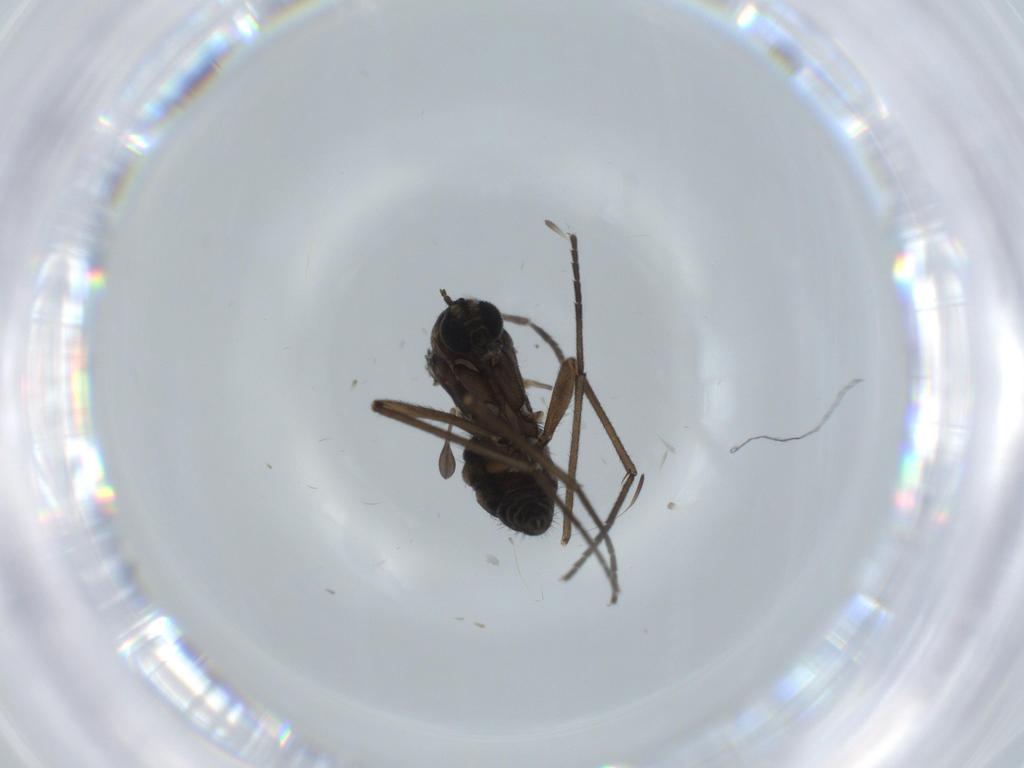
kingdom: Animalia
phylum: Arthropoda
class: Insecta
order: Diptera
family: Sciaridae
